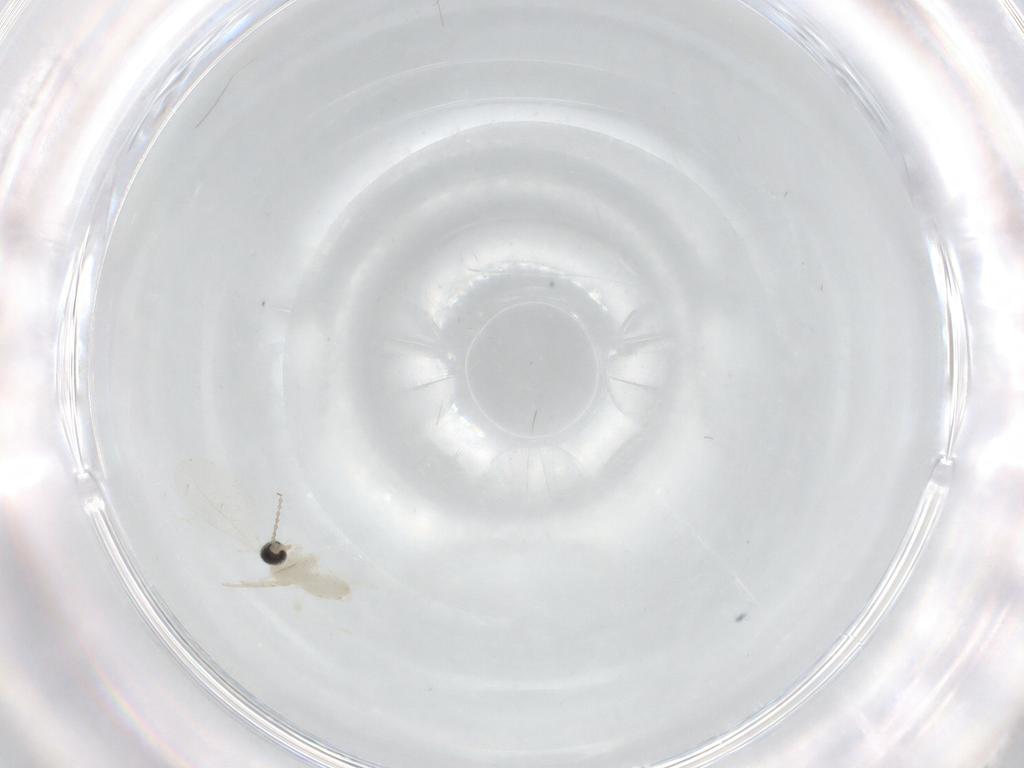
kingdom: Animalia
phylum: Arthropoda
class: Insecta
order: Diptera
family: Cecidomyiidae
